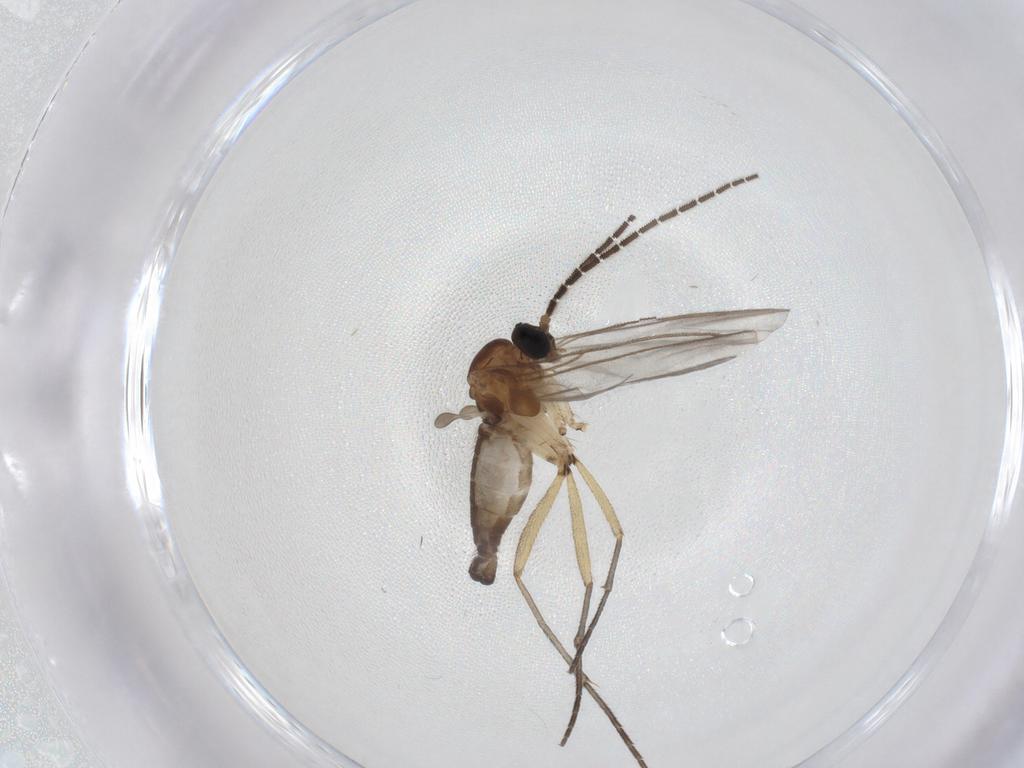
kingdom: Animalia
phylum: Arthropoda
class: Insecta
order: Diptera
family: Sciaridae
